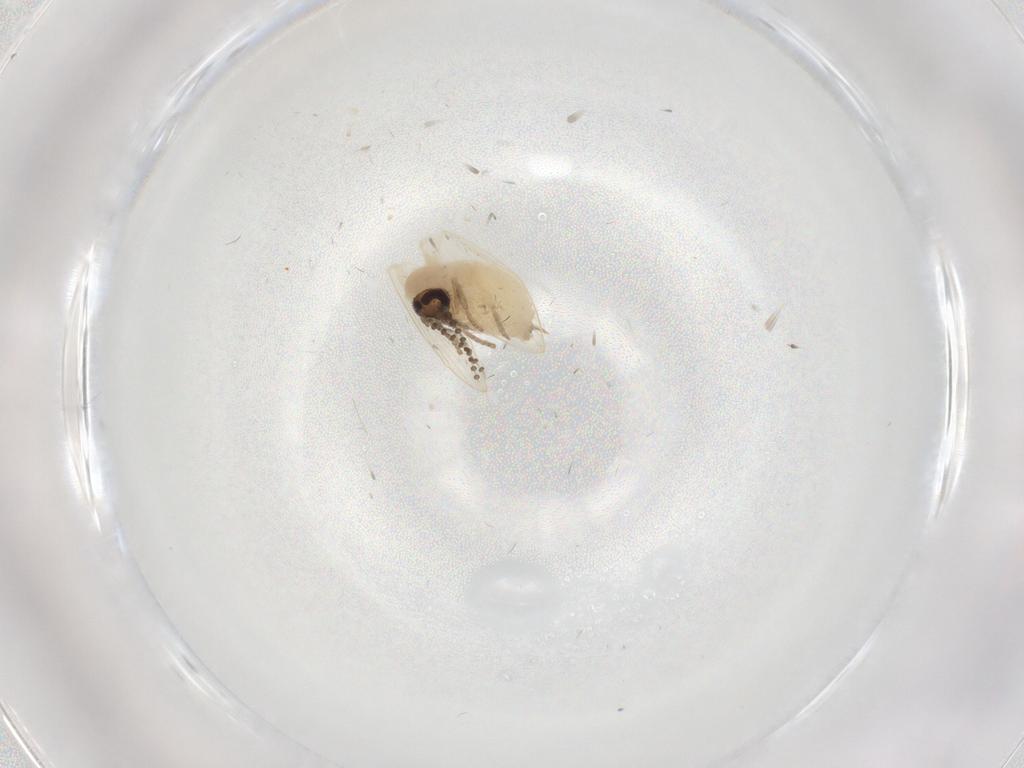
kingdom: Animalia
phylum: Arthropoda
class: Insecta
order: Diptera
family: Psychodidae
